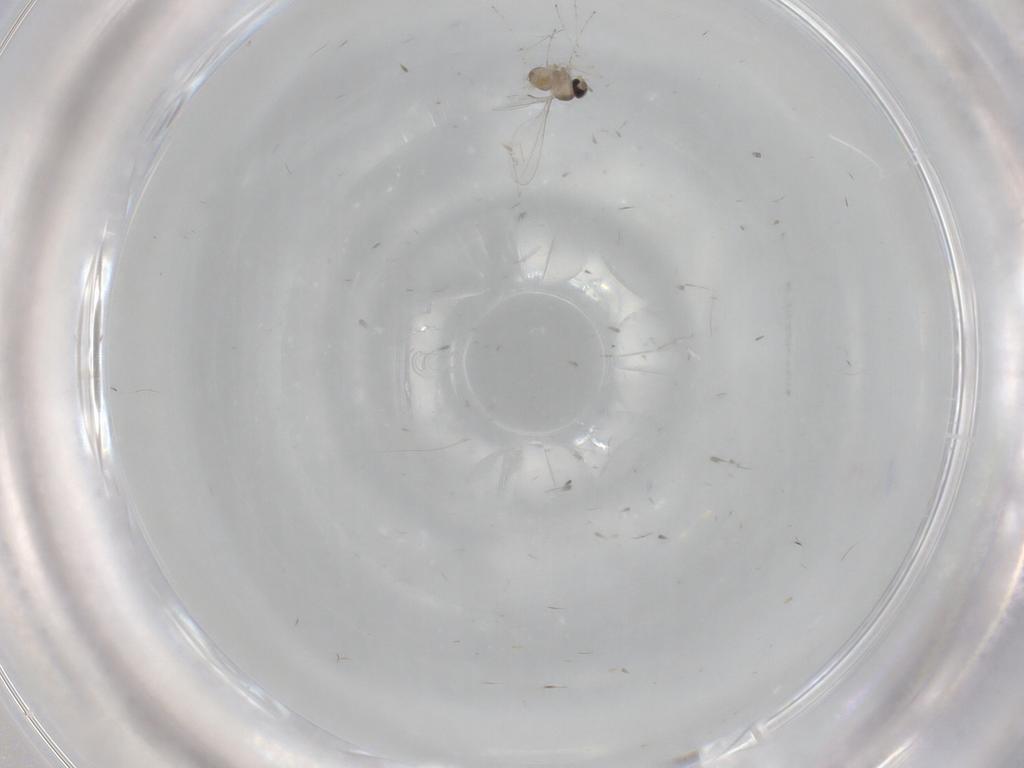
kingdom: Animalia
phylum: Arthropoda
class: Insecta
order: Diptera
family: Cecidomyiidae
